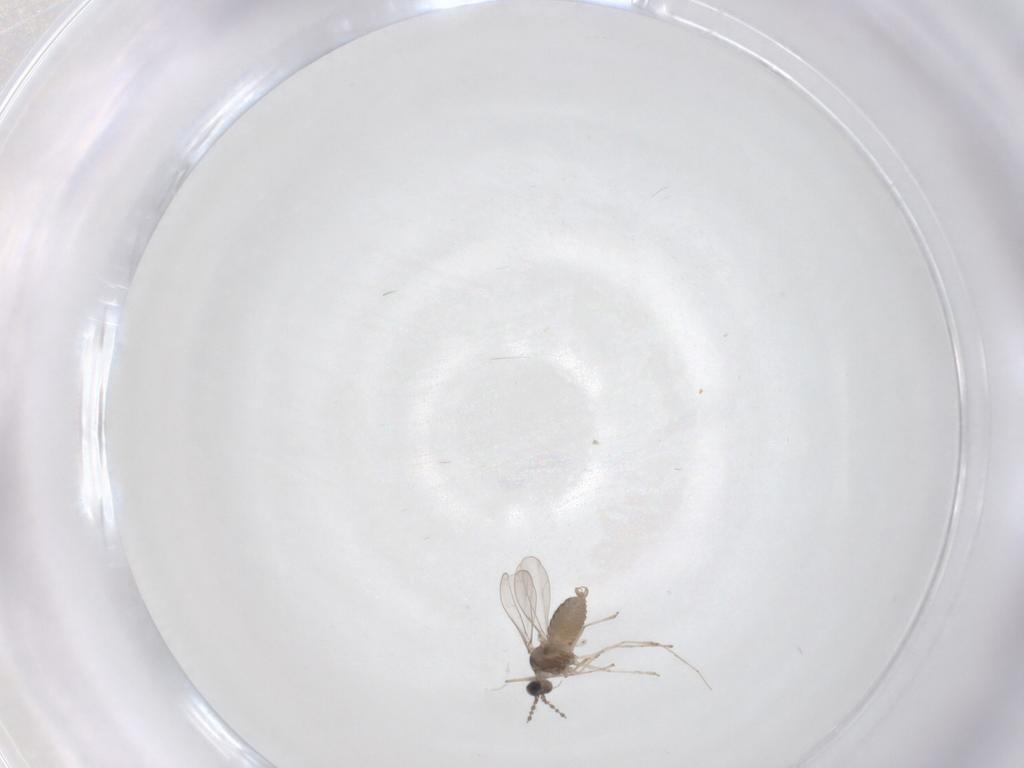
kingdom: Animalia
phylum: Arthropoda
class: Insecta
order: Diptera
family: Cecidomyiidae
